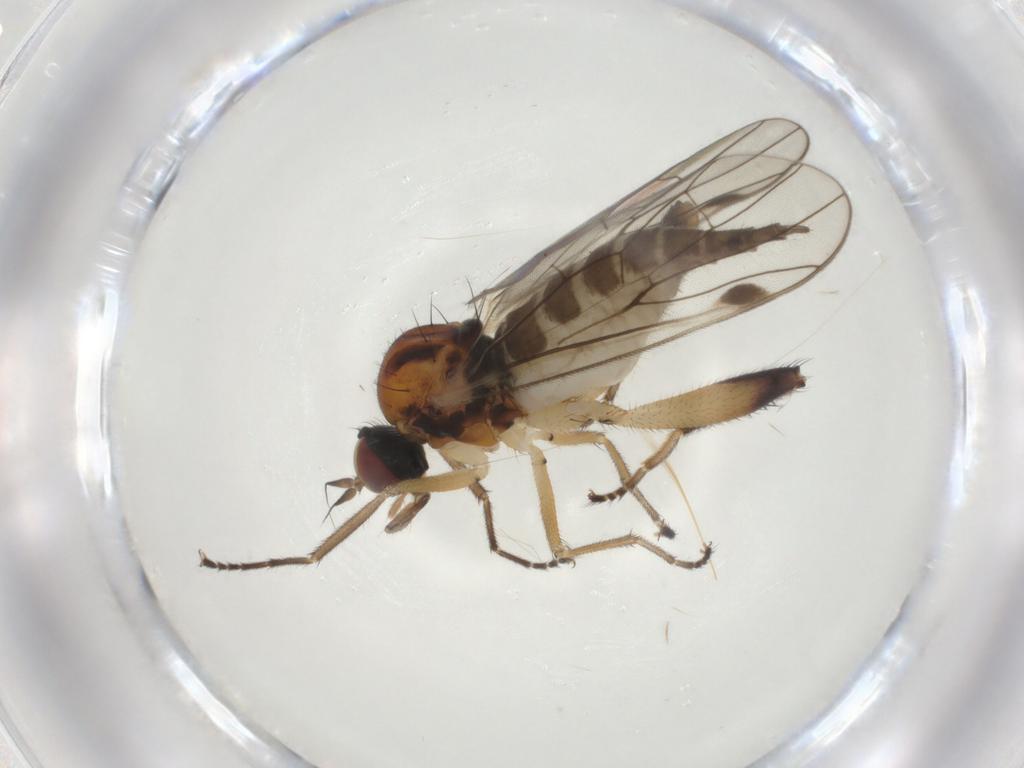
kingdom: Animalia
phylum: Arthropoda
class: Insecta
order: Diptera
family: Hybotidae
